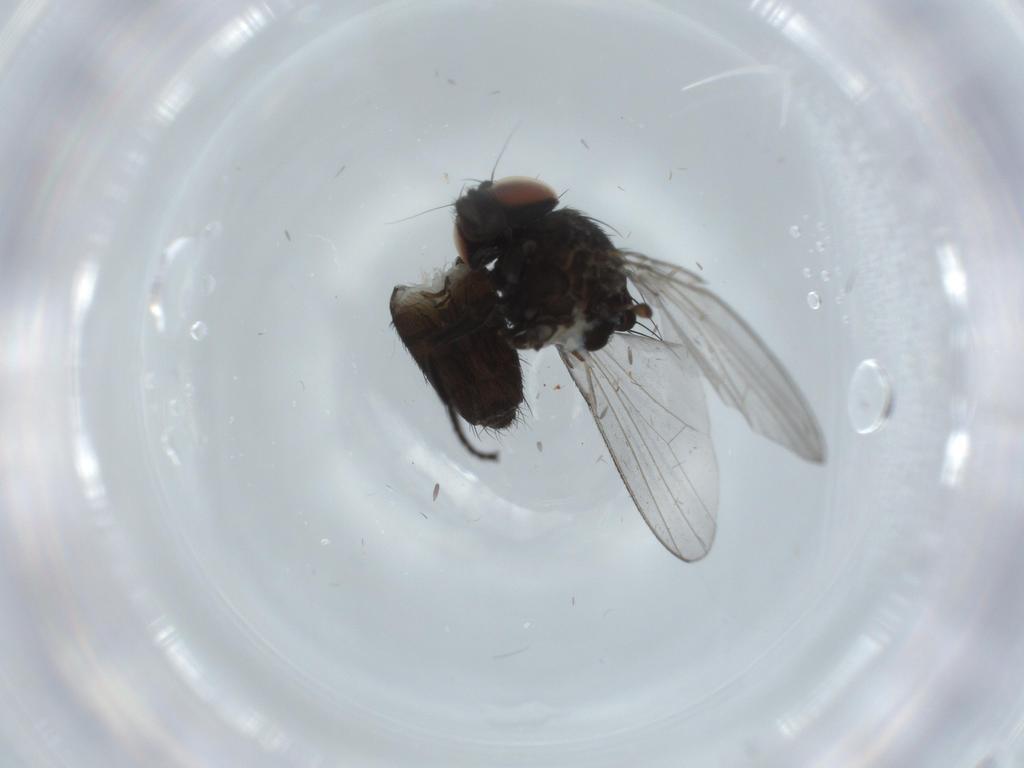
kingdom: Animalia
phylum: Arthropoda
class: Insecta
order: Diptera
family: Milichiidae
